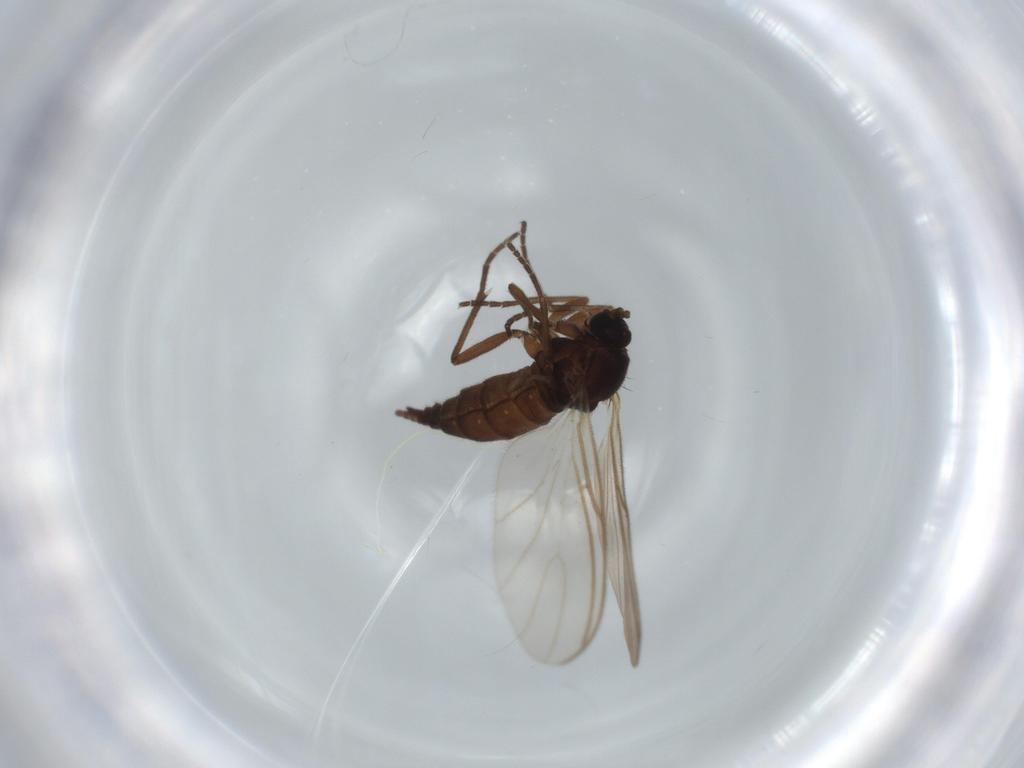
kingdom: Animalia
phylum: Arthropoda
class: Insecta
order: Diptera
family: Sciaridae
